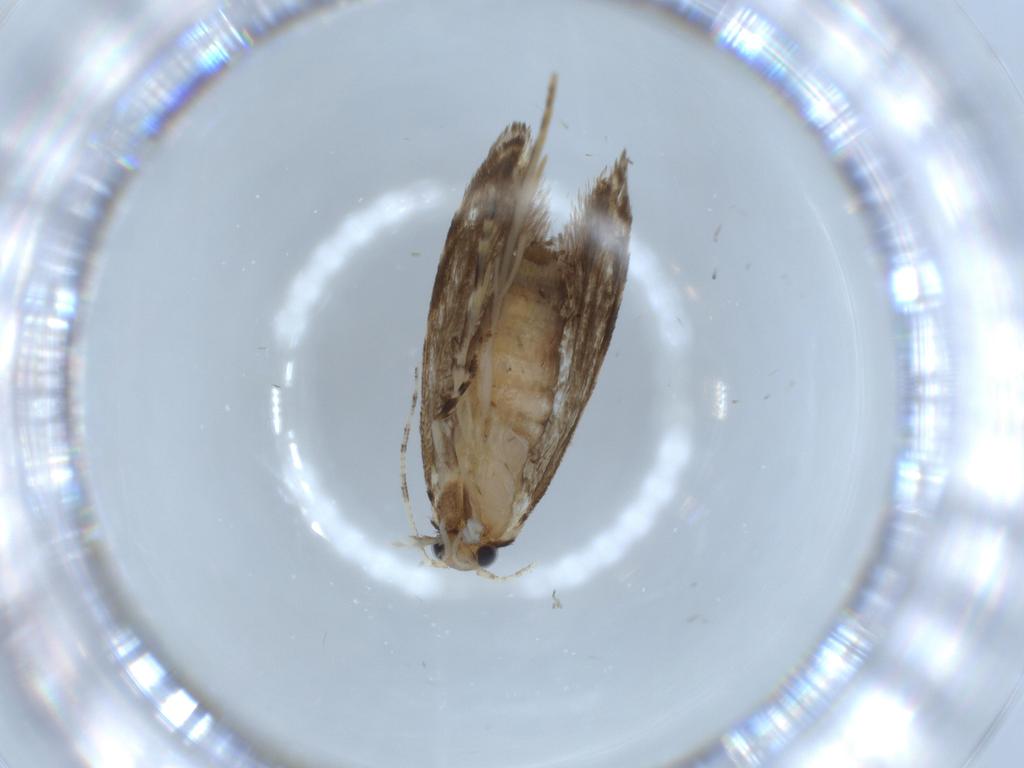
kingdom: Animalia
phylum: Arthropoda
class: Insecta
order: Lepidoptera
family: Tineidae
